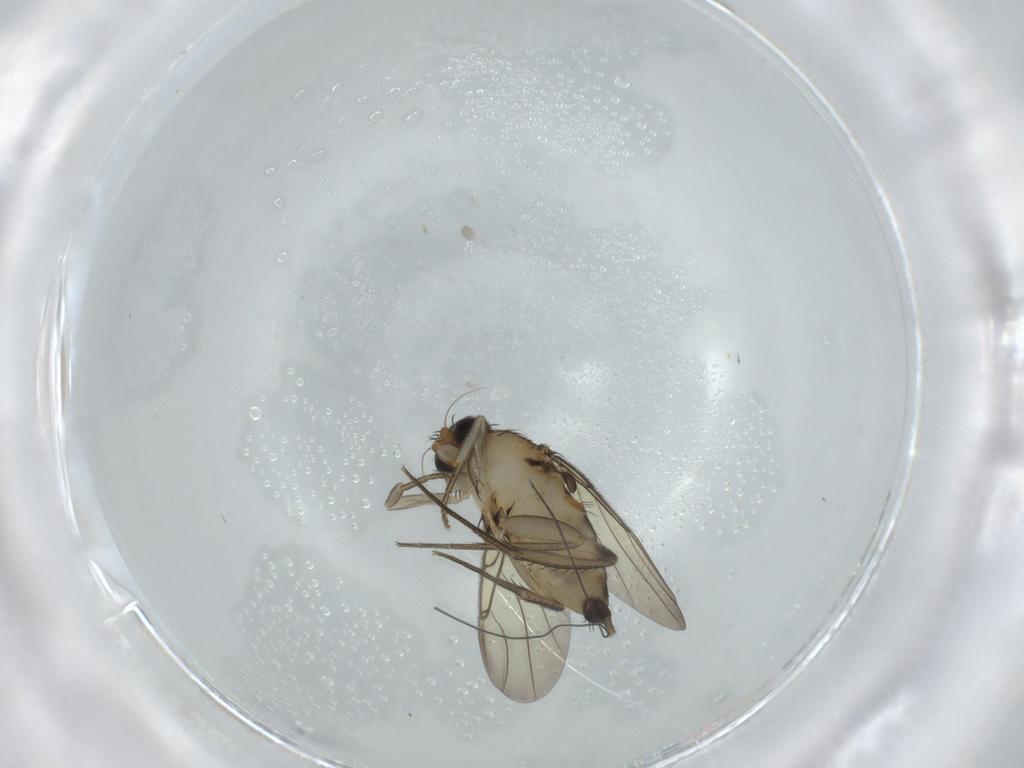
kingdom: Animalia
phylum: Arthropoda
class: Insecta
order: Diptera
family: Phoridae
